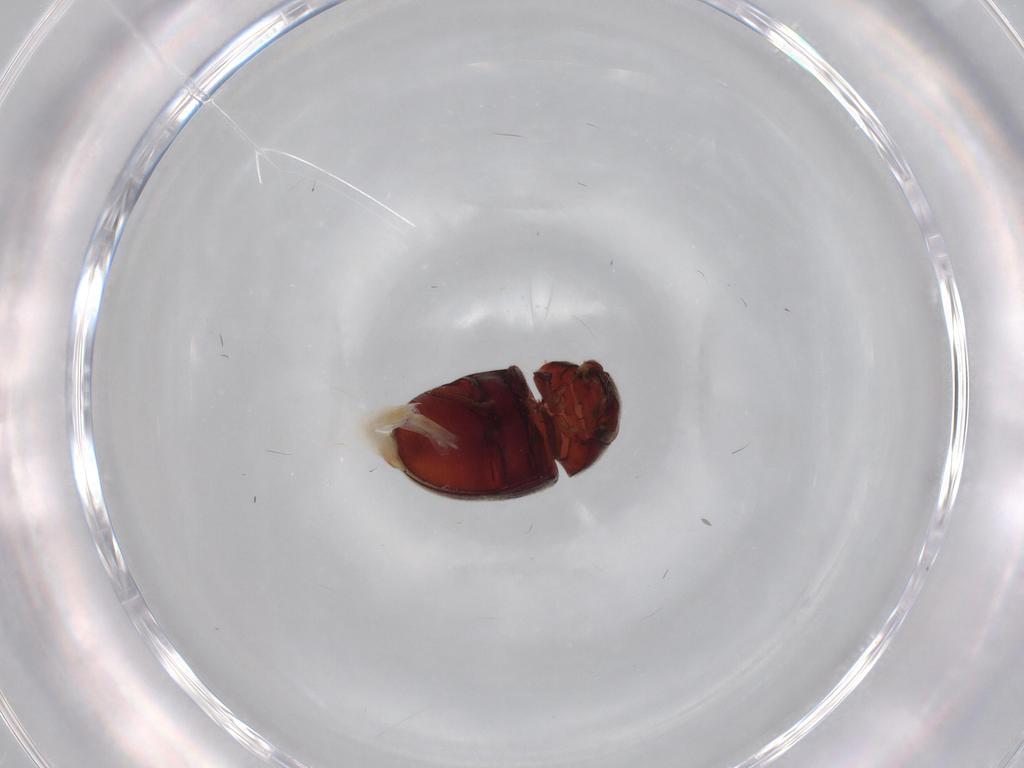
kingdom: Animalia
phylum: Arthropoda
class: Insecta
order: Coleoptera
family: Ptinidae
